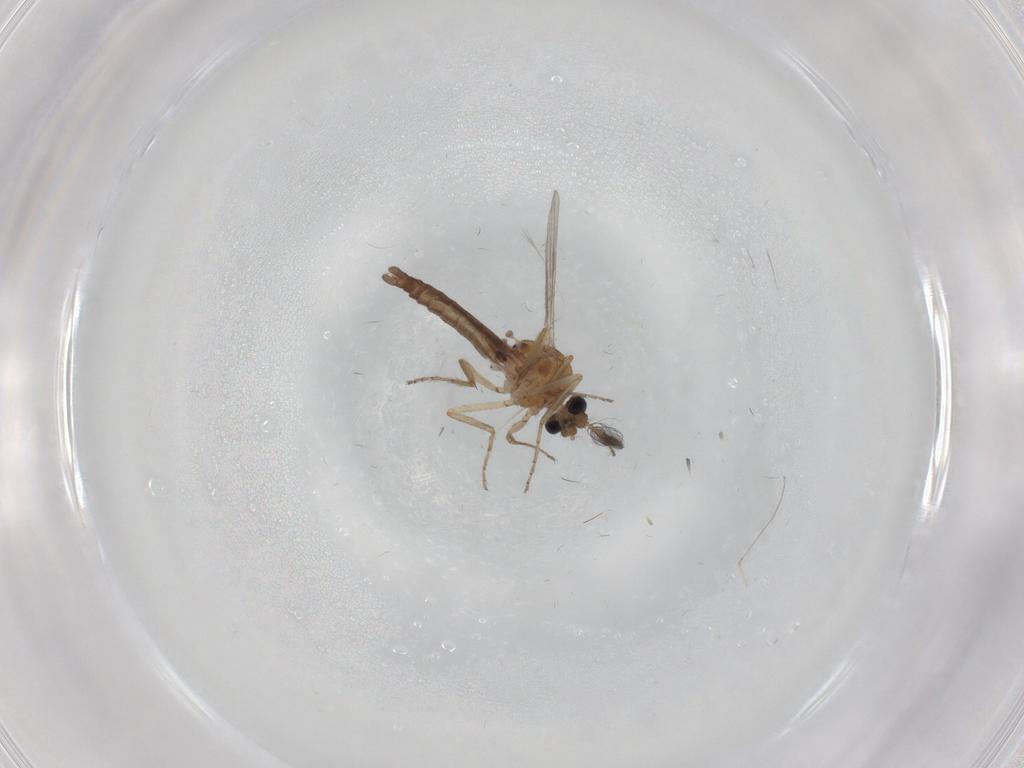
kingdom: Animalia
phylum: Arthropoda
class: Insecta
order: Diptera
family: Ceratopogonidae
